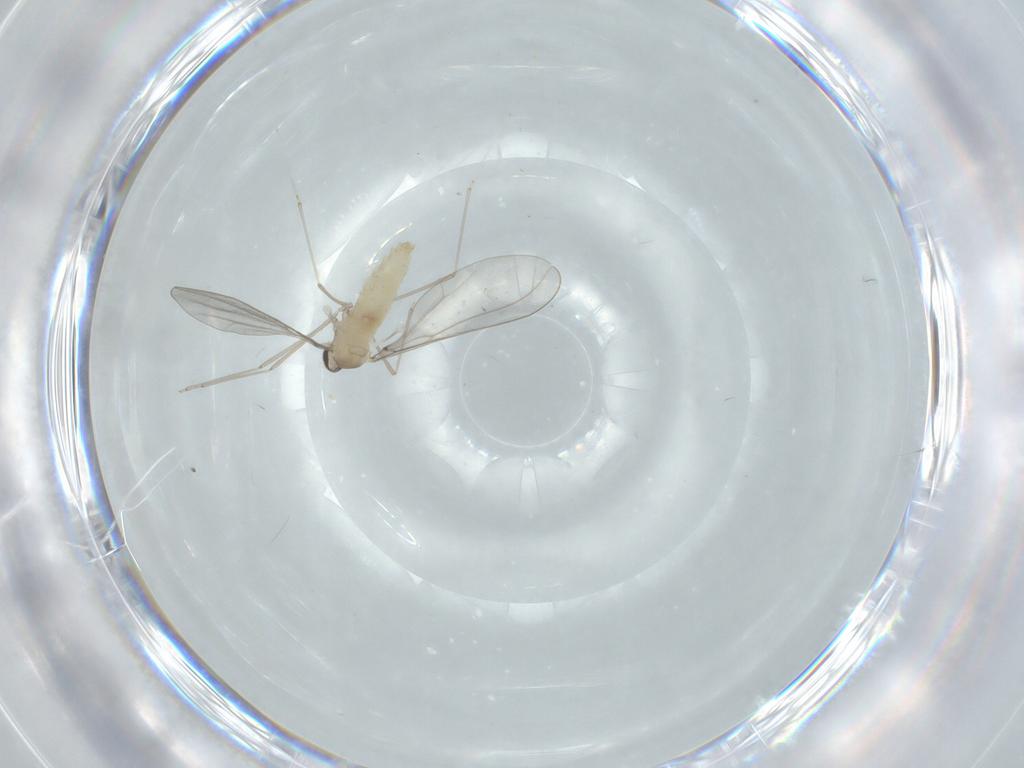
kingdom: Animalia
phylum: Arthropoda
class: Insecta
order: Diptera
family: Cecidomyiidae
